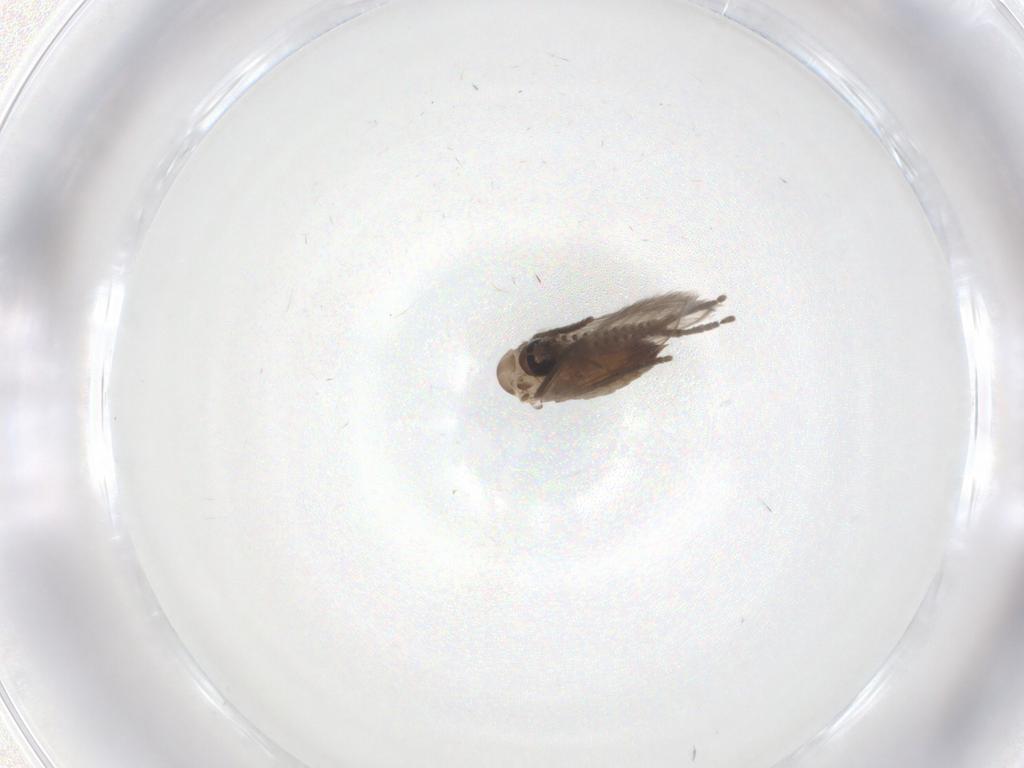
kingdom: Animalia
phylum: Arthropoda
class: Insecta
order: Diptera
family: Psychodidae
